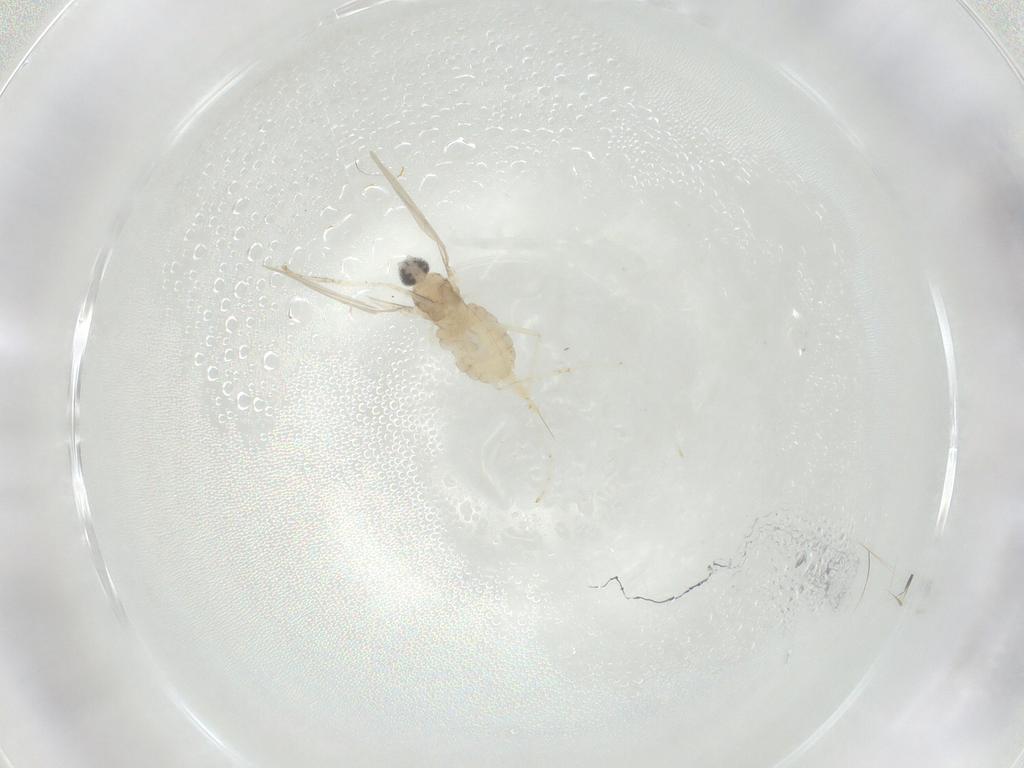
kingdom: Animalia
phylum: Arthropoda
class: Insecta
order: Diptera
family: Cecidomyiidae
